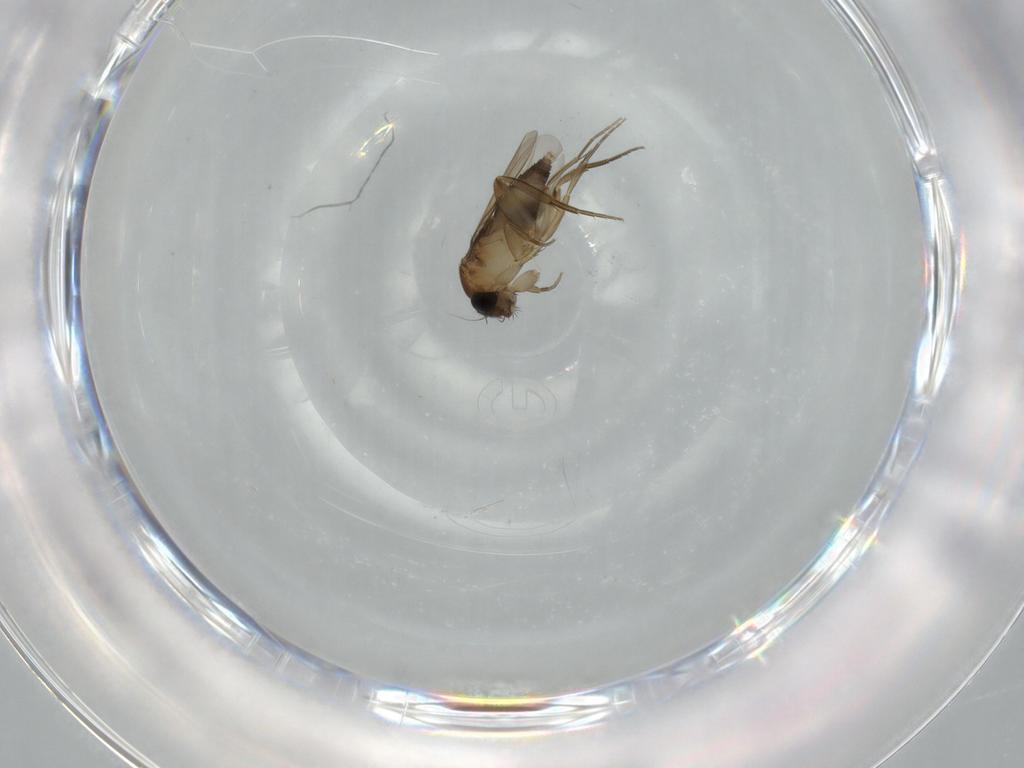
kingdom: Animalia
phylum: Arthropoda
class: Insecta
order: Diptera
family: Phoridae
